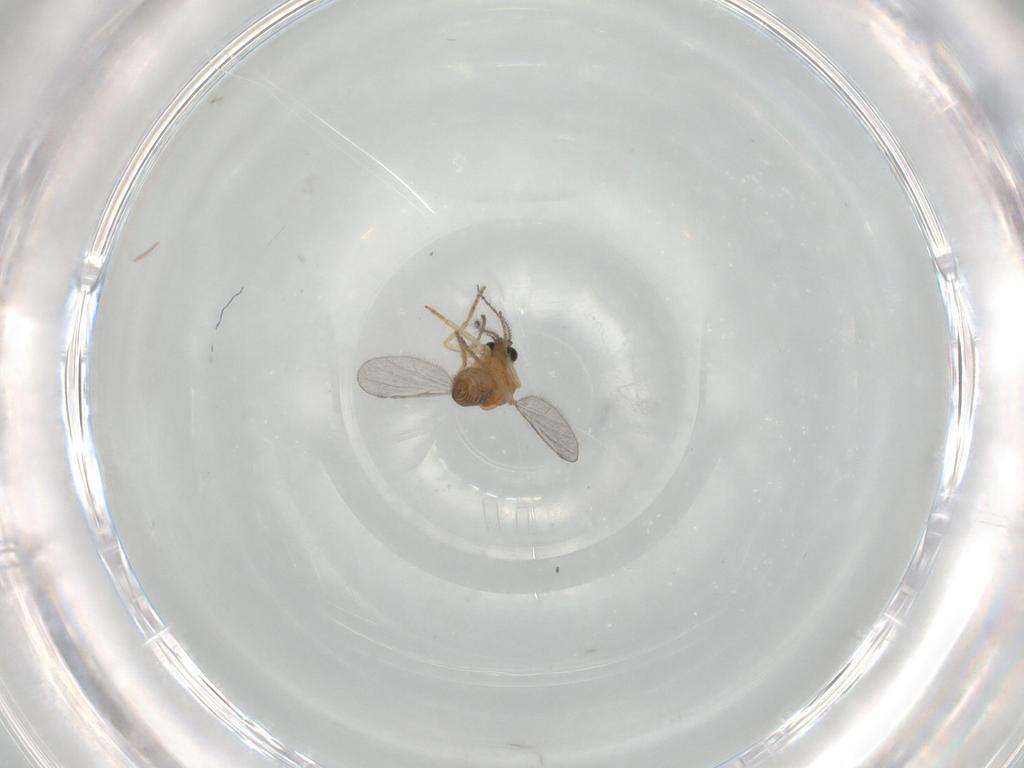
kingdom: Animalia
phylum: Arthropoda
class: Insecta
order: Diptera
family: Ceratopogonidae
